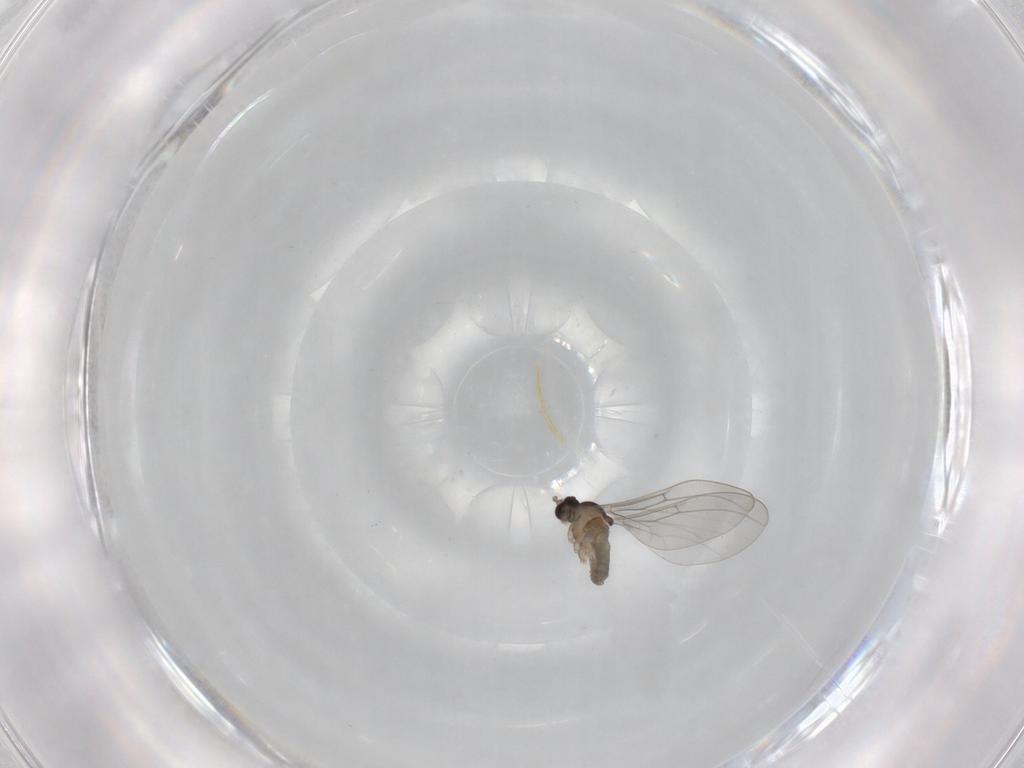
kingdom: Animalia
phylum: Arthropoda
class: Insecta
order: Diptera
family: Cecidomyiidae
